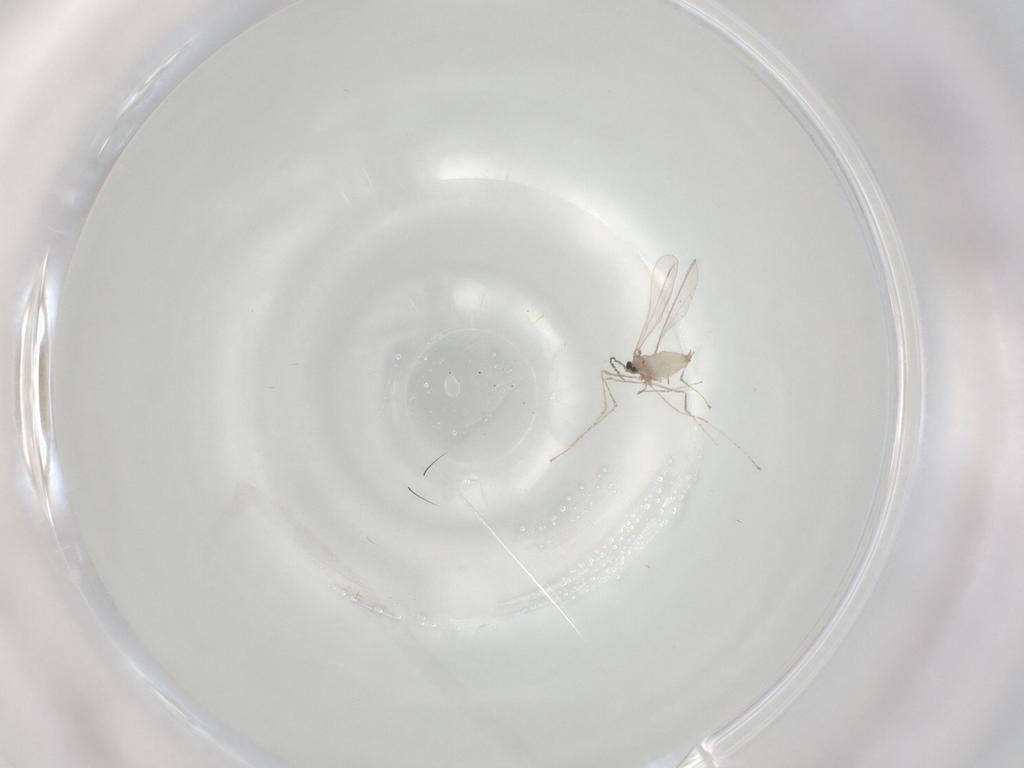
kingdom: Animalia
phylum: Arthropoda
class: Insecta
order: Diptera
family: Cecidomyiidae
